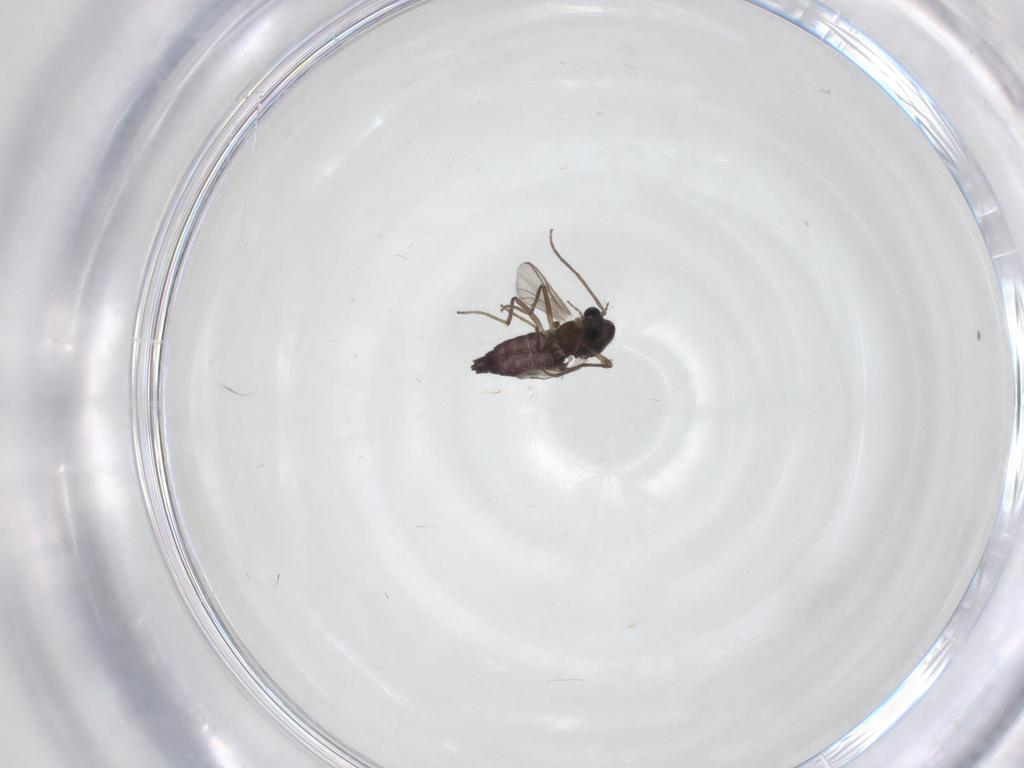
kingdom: Animalia
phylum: Arthropoda
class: Insecta
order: Diptera
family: Chironomidae
